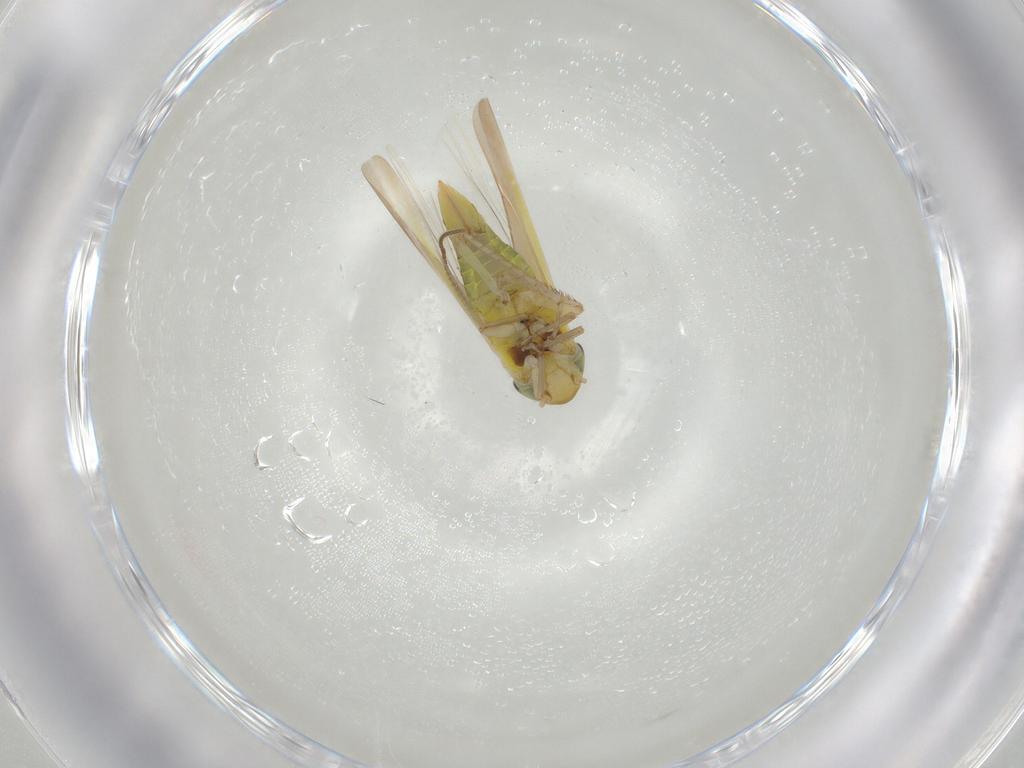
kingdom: Animalia
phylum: Arthropoda
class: Insecta
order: Hemiptera
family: Cicadellidae
